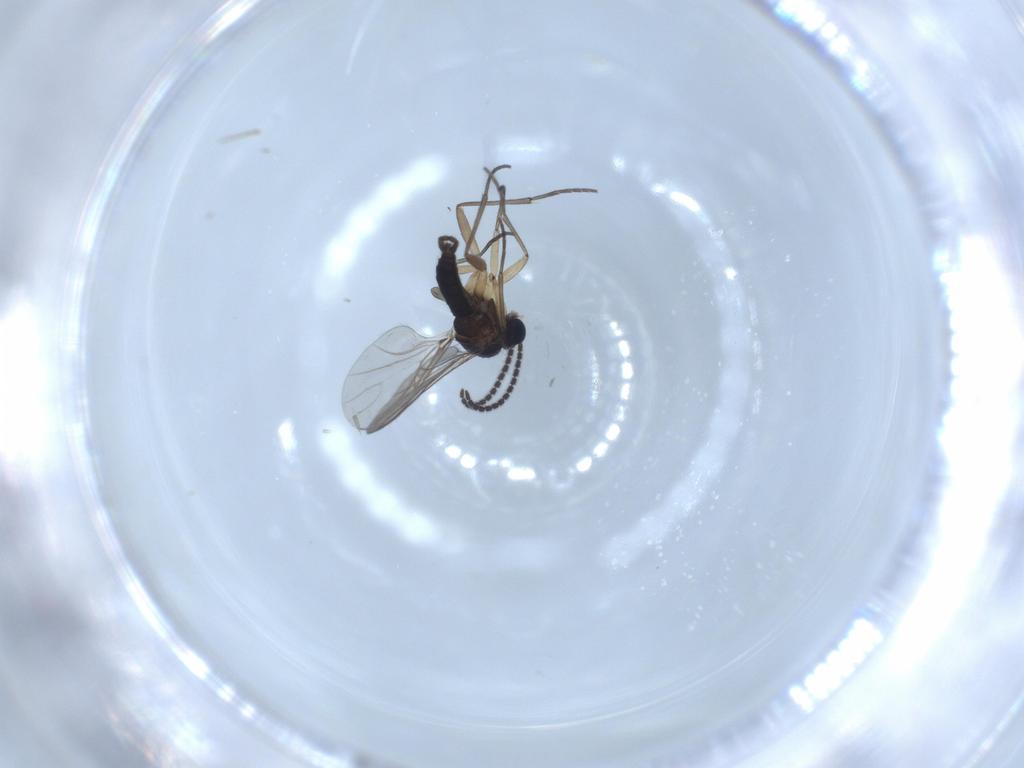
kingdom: Animalia
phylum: Arthropoda
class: Insecta
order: Diptera
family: Sciaridae
